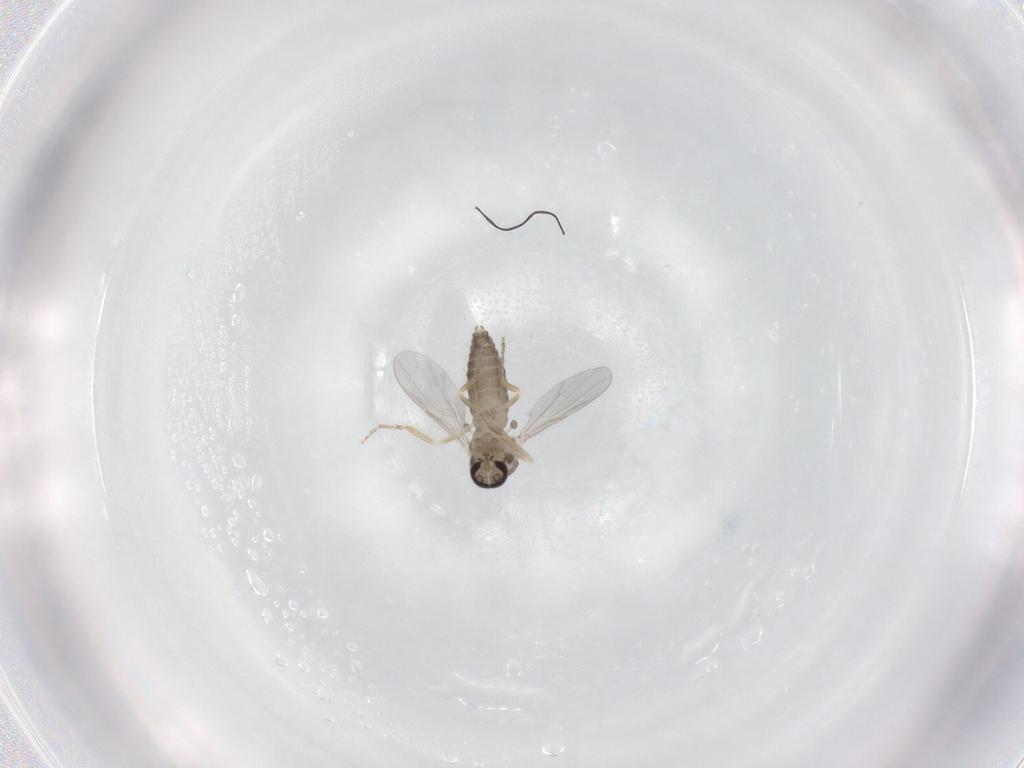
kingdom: Animalia
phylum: Arthropoda
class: Insecta
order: Diptera
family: Ceratopogonidae
